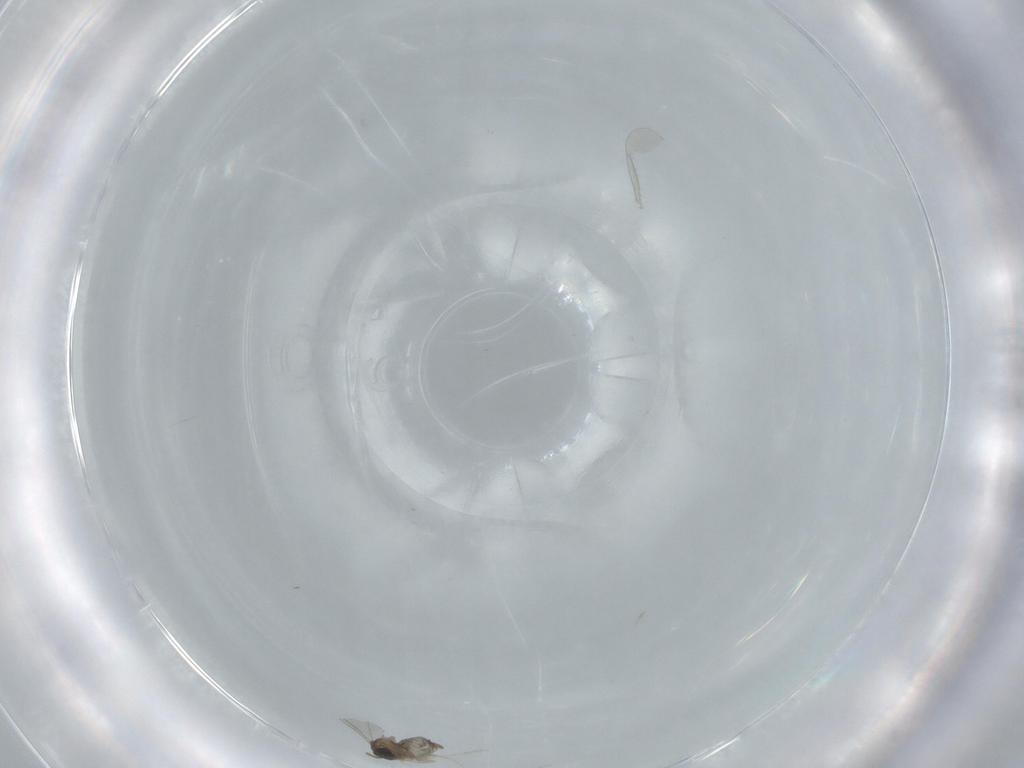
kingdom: Animalia
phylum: Arthropoda
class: Insecta
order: Diptera
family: Cecidomyiidae
